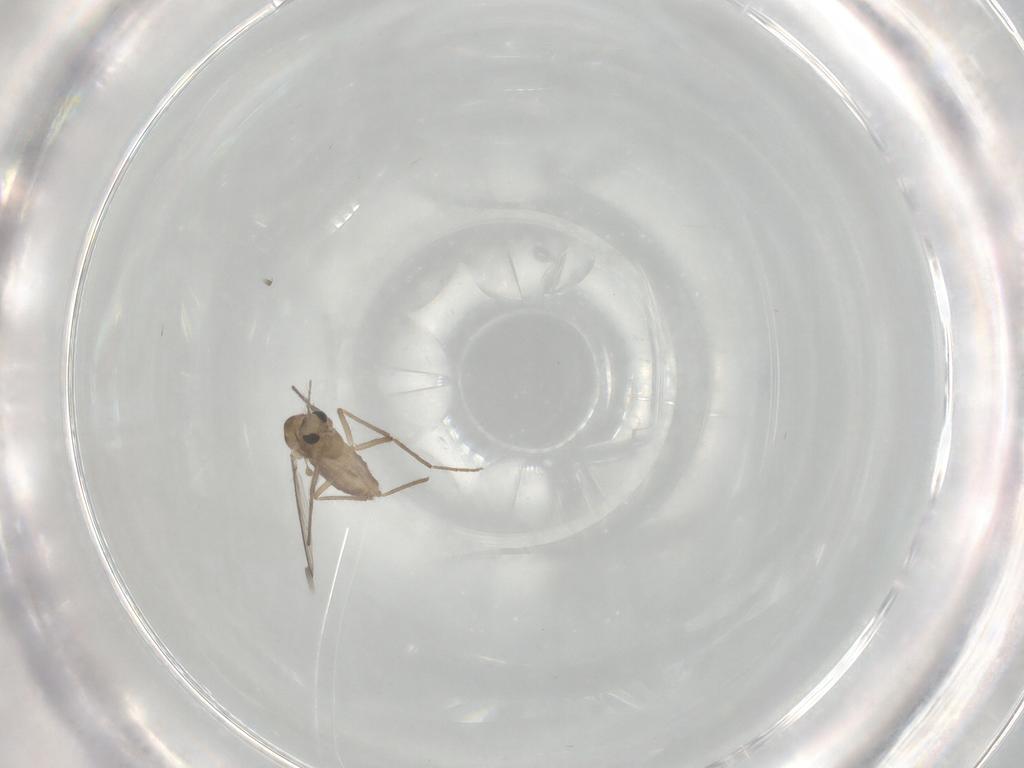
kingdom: Animalia
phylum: Arthropoda
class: Insecta
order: Diptera
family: Chironomidae
